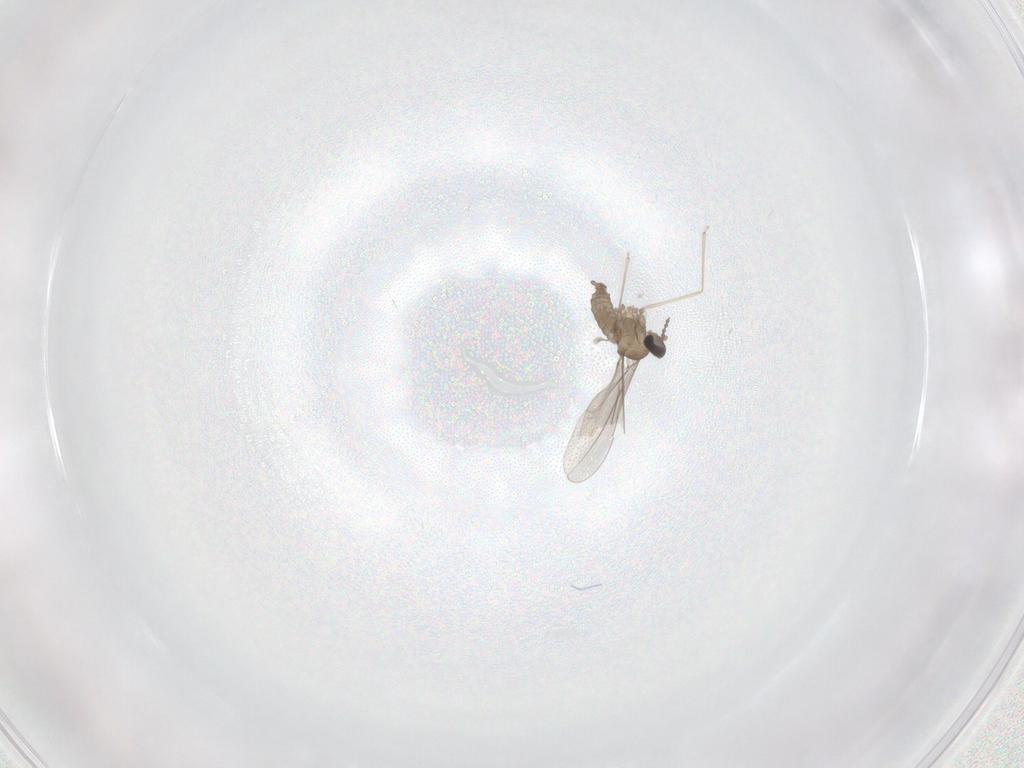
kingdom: Animalia
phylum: Arthropoda
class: Insecta
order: Diptera
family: Cecidomyiidae
